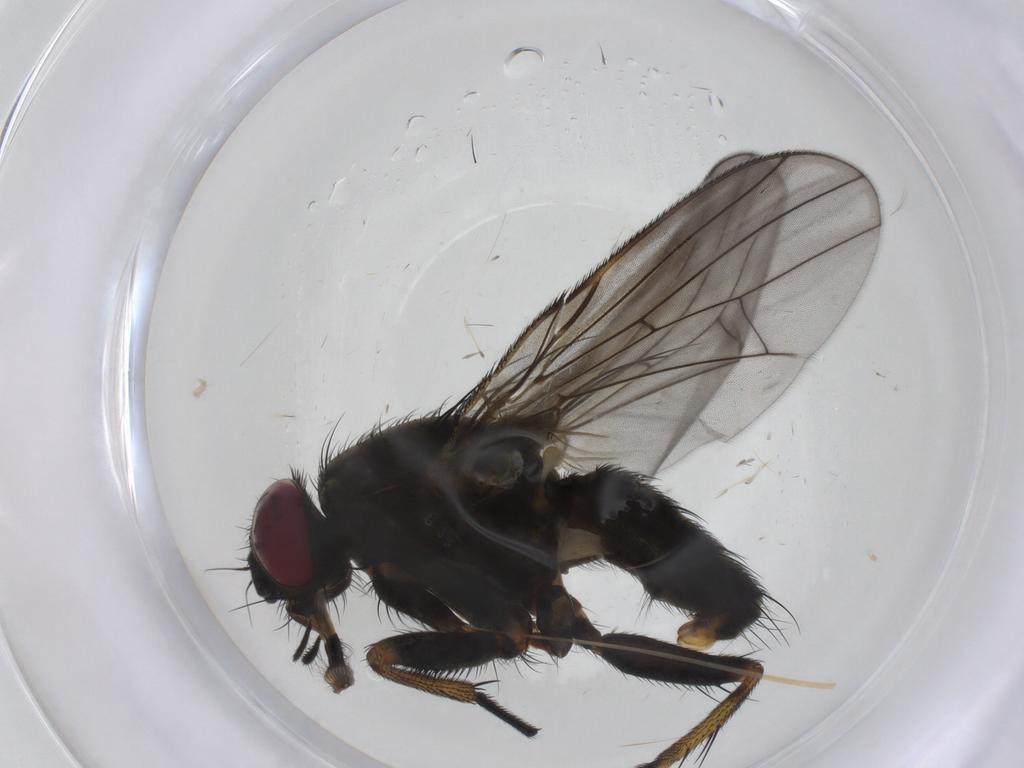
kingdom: Animalia
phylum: Arthropoda
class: Insecta
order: Diptera
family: Fanniidae
